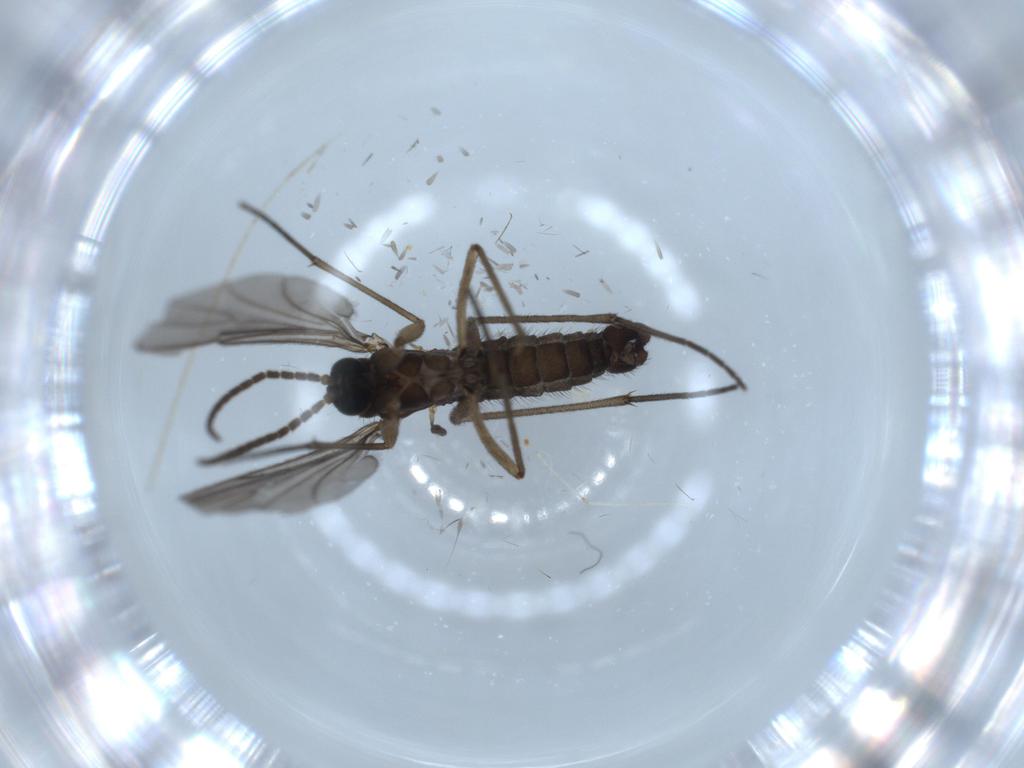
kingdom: Animalia
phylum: Arthropoda
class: Insecta
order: Diptera
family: Sciaridae
